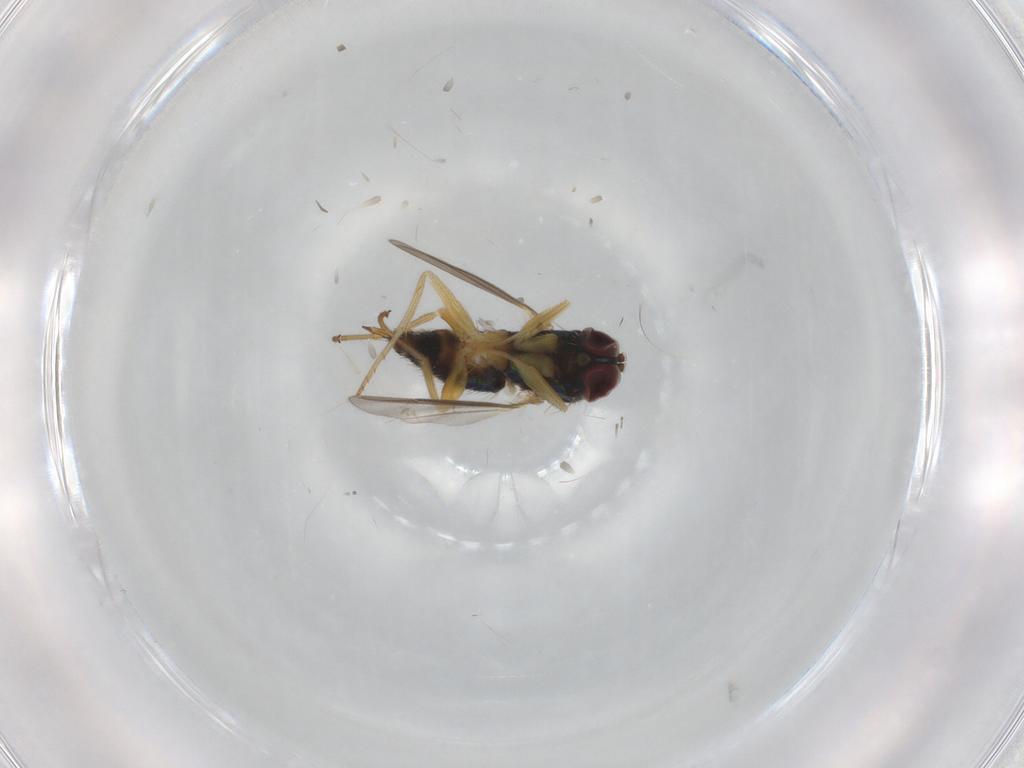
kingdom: Animalia
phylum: Arthropoda
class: Insecta
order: Diptera
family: Dolichopodidae
